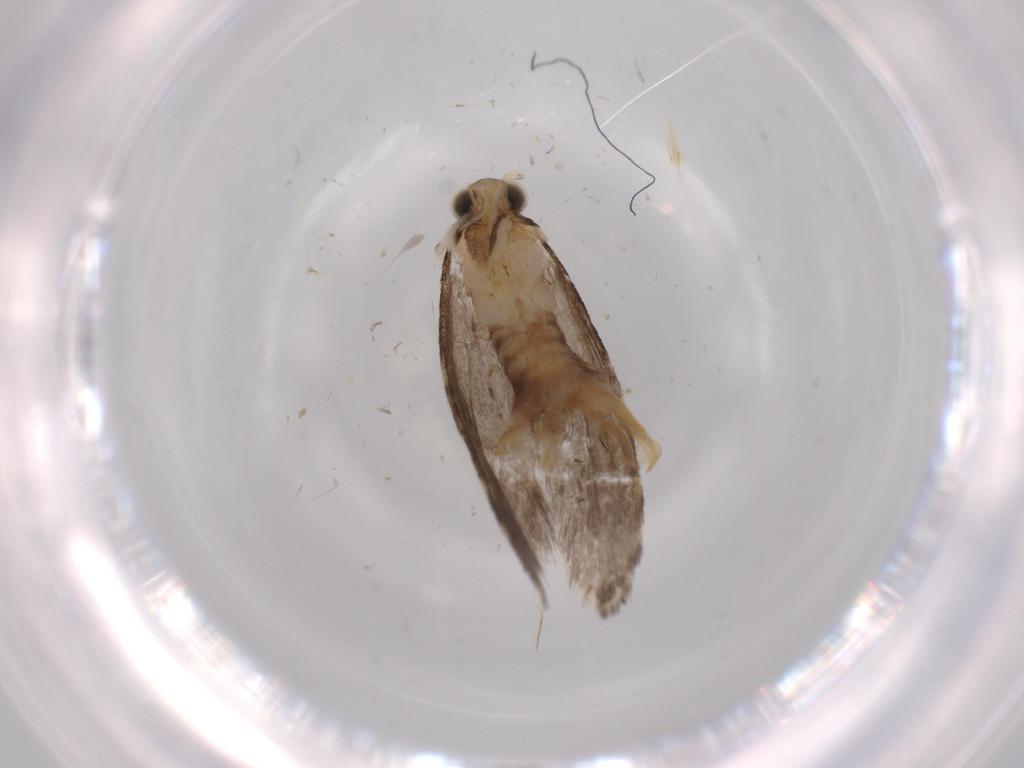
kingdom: Animalia
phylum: Arthropoda
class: Insecta
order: Lepidoptera
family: Tineidae
